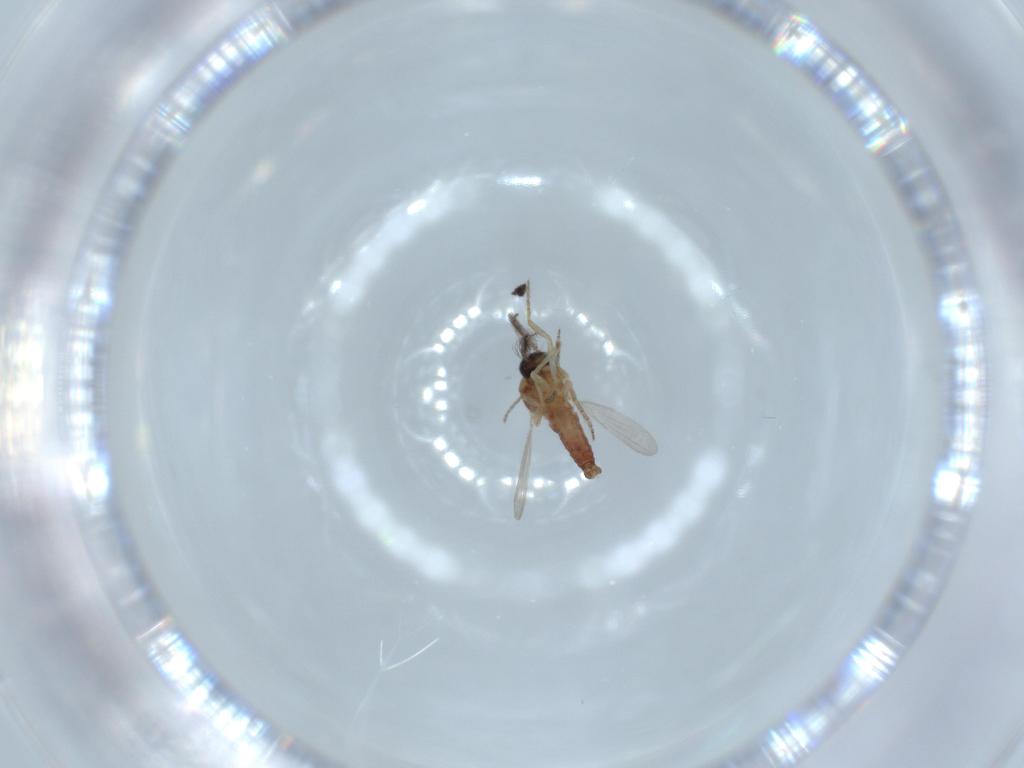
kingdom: Animalia
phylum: Arthropoda
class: Insecta
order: Diptera
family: Ceratopogonidae
